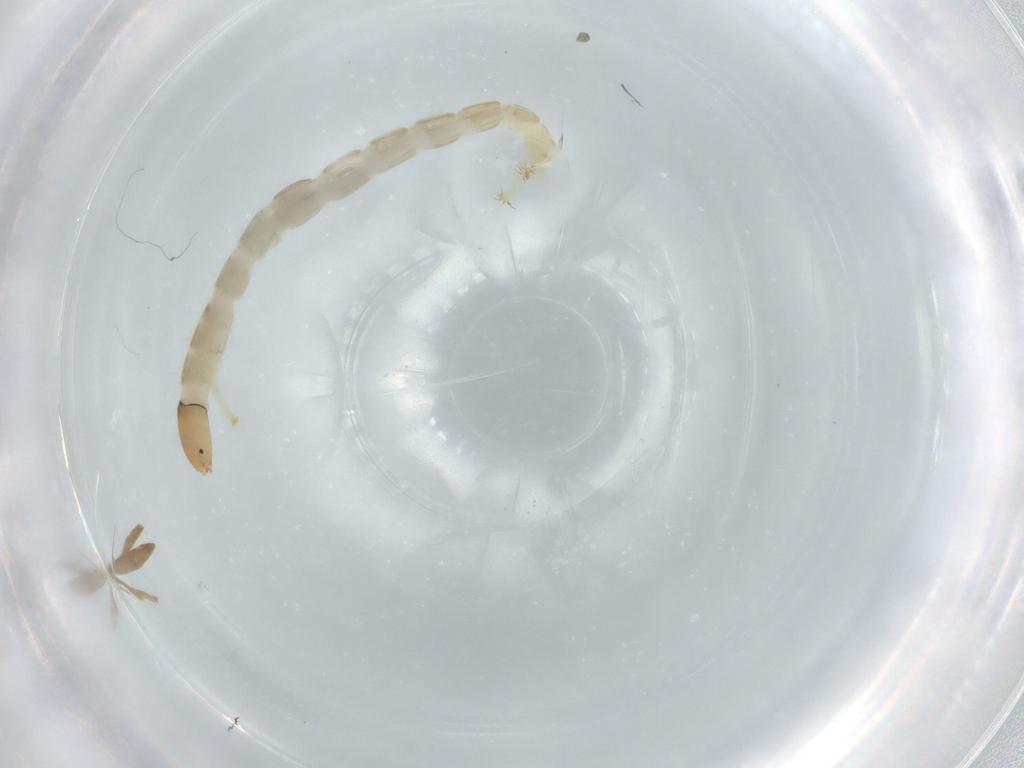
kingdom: Animalia
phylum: Arthropoda
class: Insecta
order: Diptera
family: Chironomidae
